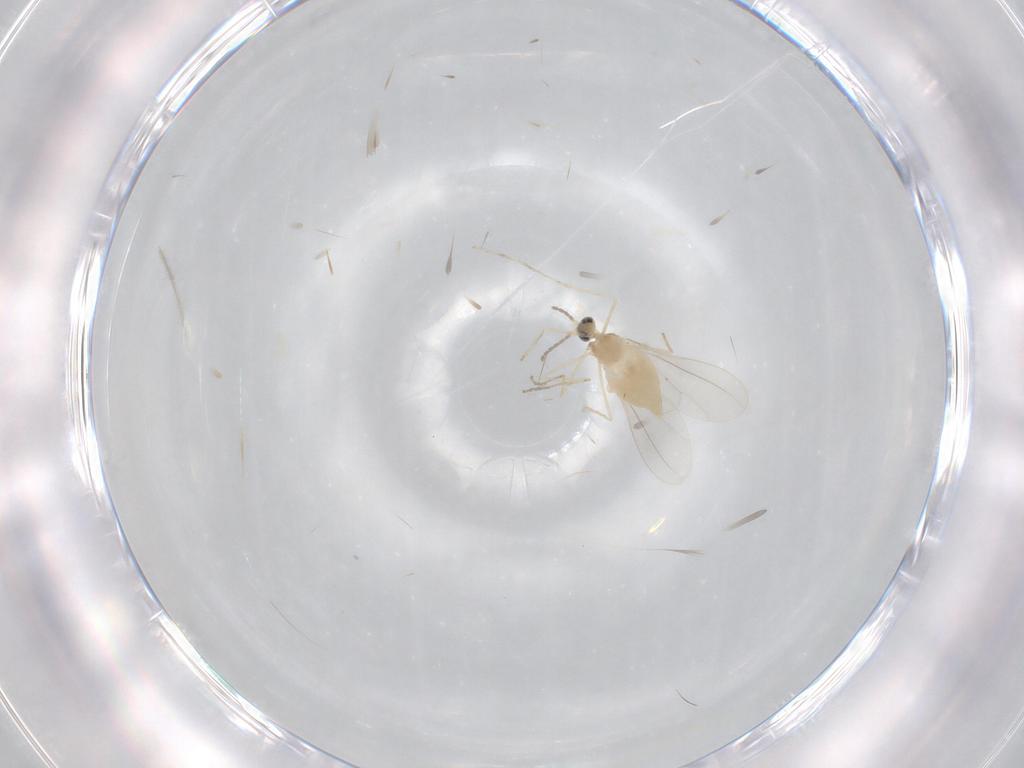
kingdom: Animalia
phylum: Arthropoda
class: Insecta
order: Diptera
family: Cecidomyiidae
